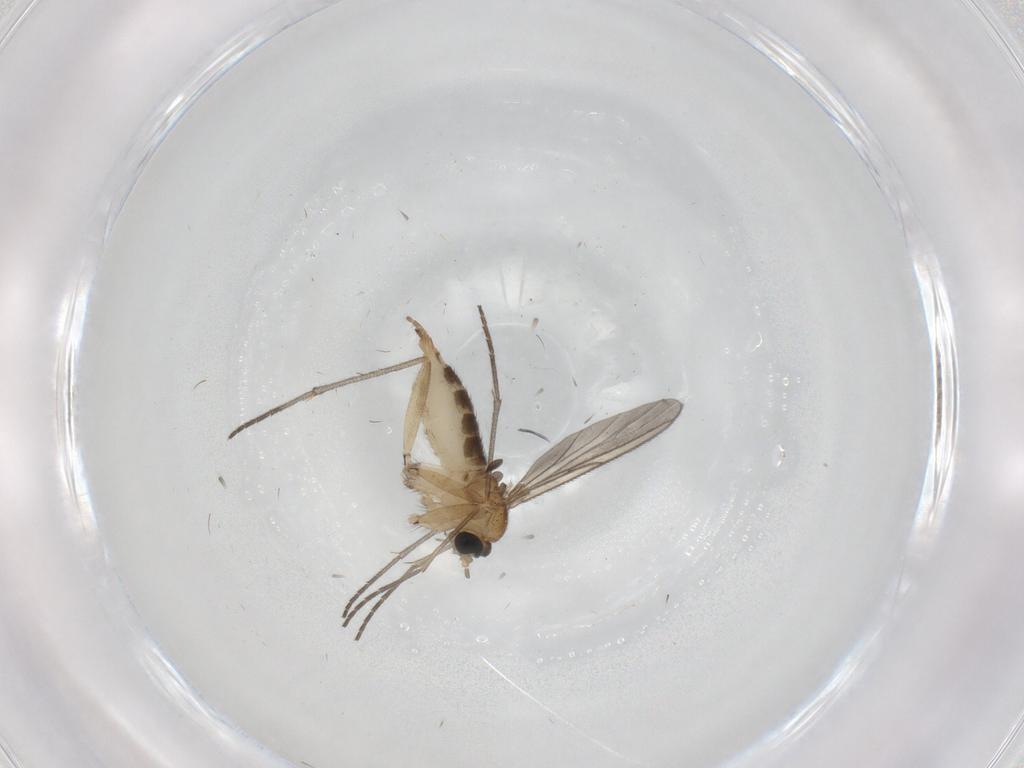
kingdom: Animalia
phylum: Arthropoda
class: Insecta
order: Diptera
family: Sciaridae
